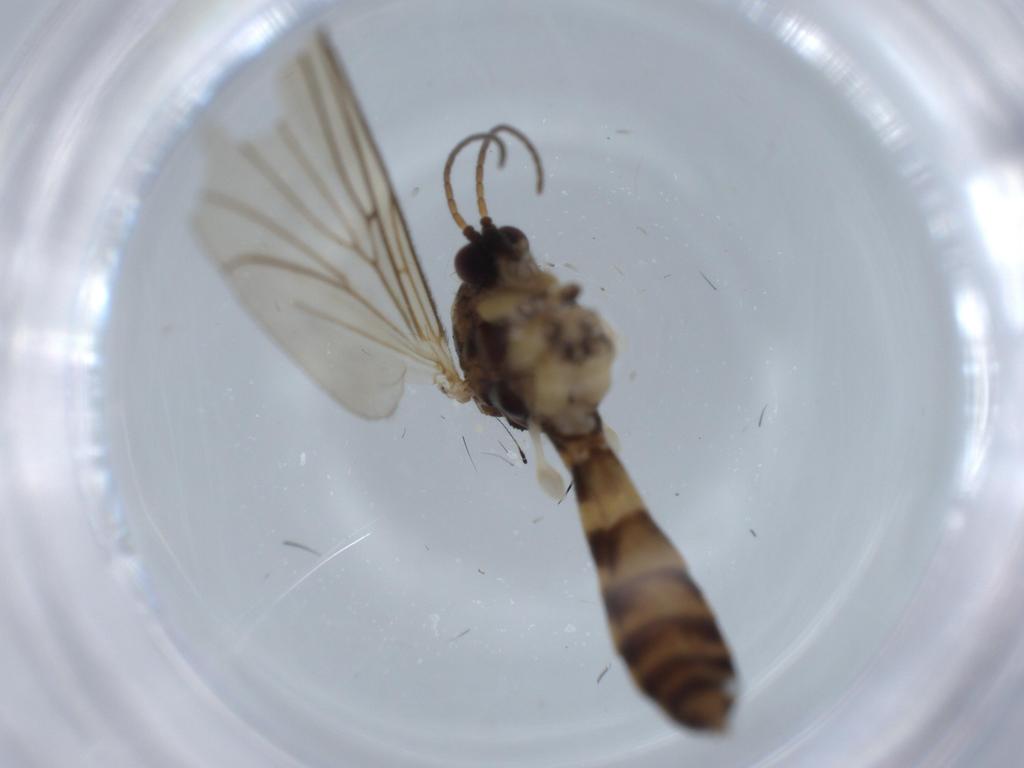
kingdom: Animalia
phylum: Arthropoda
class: Insecta
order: Diptera
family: Mycetophilidae
